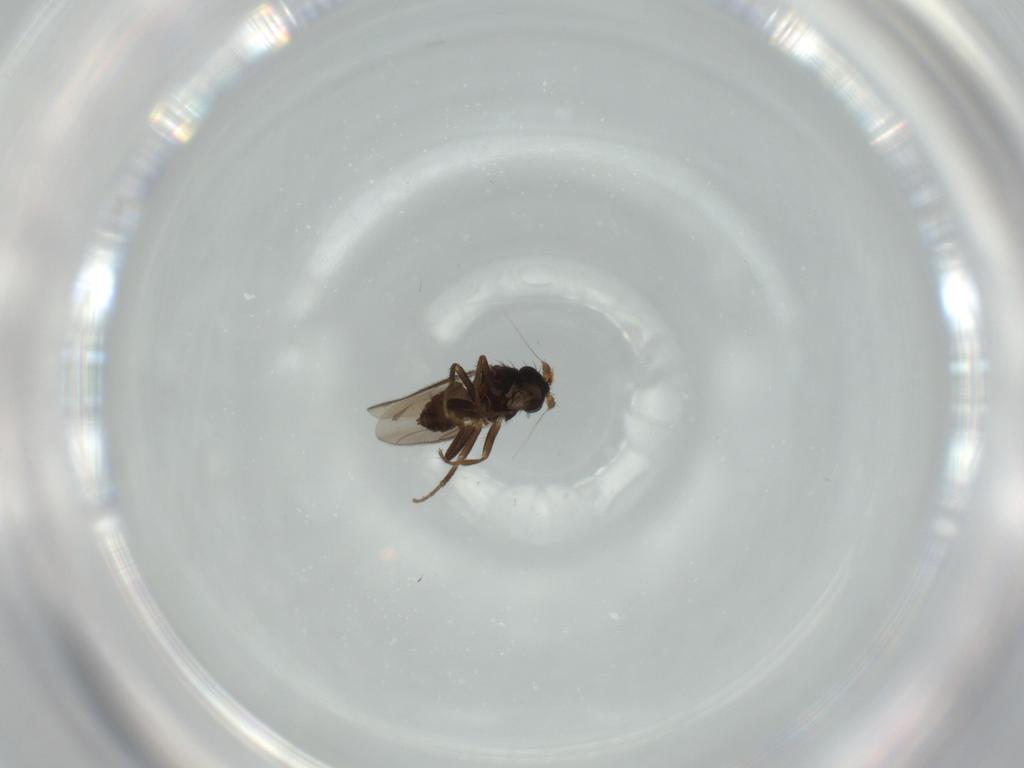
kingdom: Animalia
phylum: Arthropoda
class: Insecta
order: Diptera
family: Sphaeroceridae
